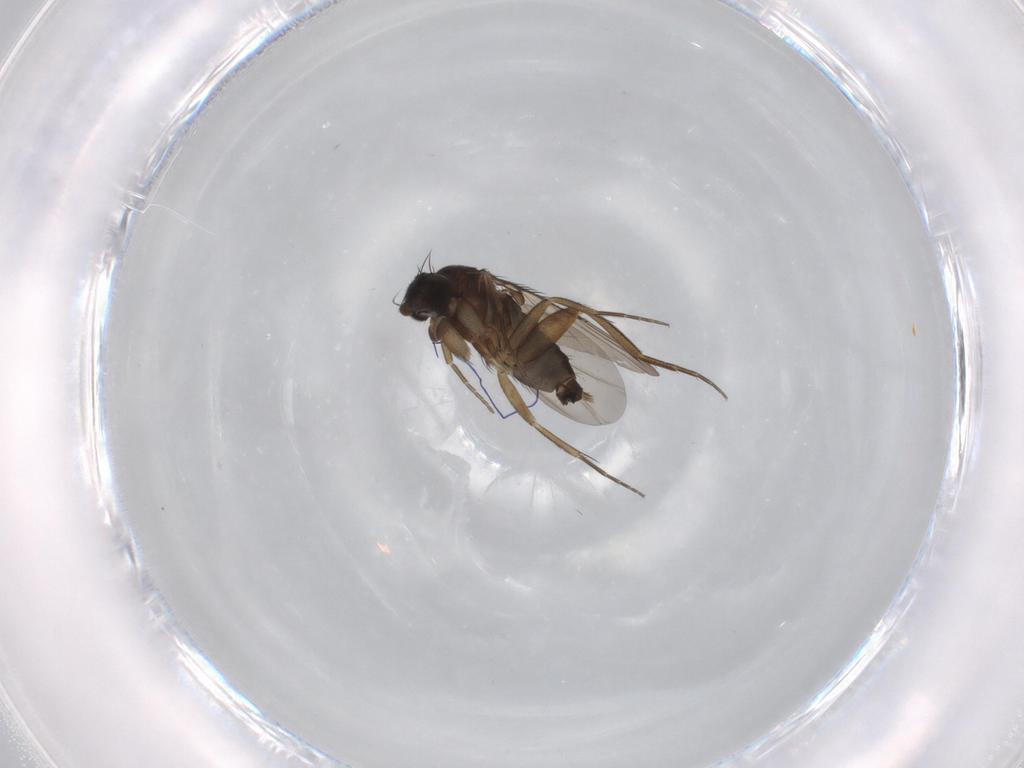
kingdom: Animalia
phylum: Arthropoda
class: Insecta
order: Diptera
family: Phoridae
